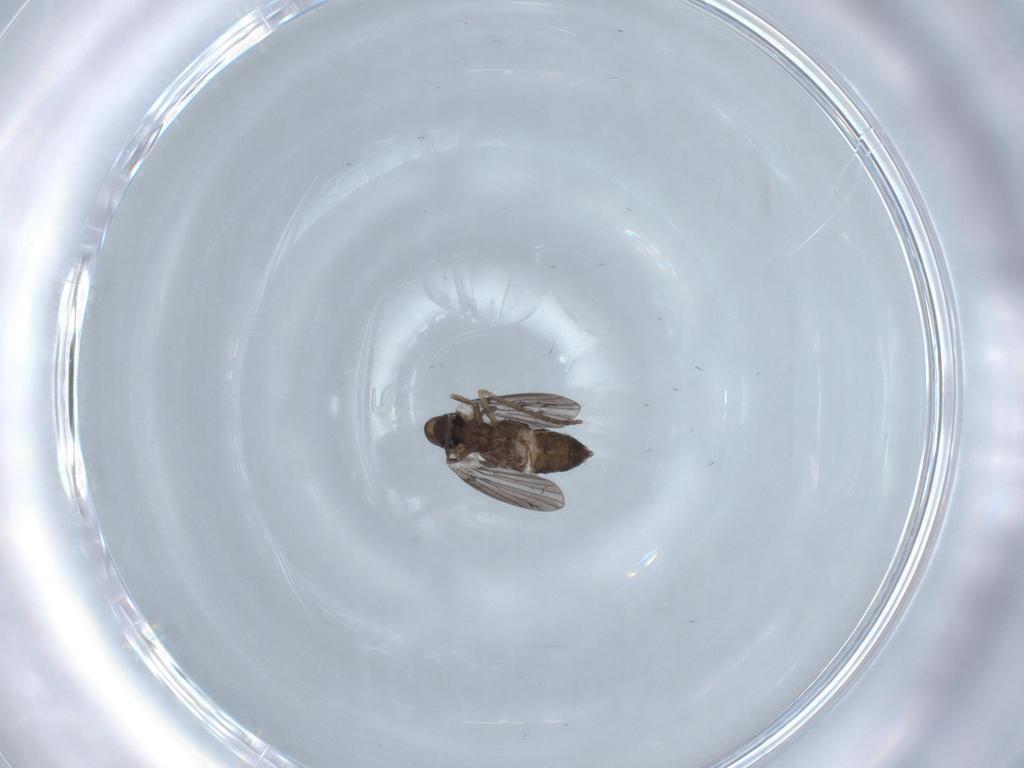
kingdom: Animalia
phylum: Arthropoda
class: Insecta
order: Diptera
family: Psychodidae
